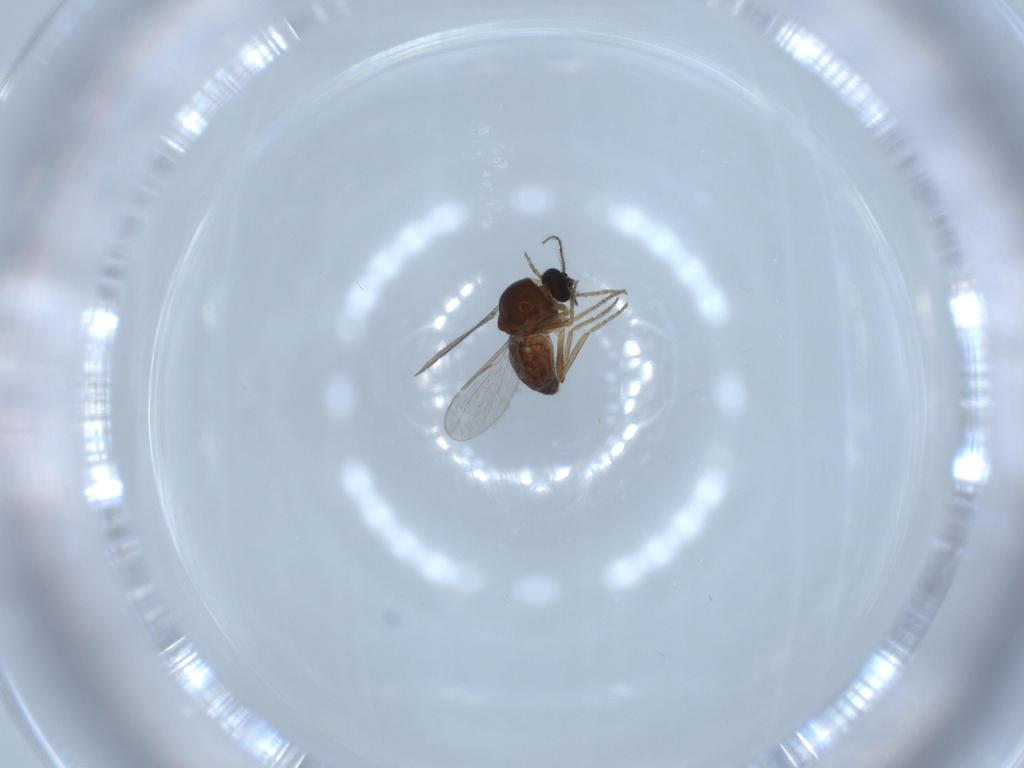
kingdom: Animalia
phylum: Arthropoda
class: Insecta
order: Diptera
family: Ceratopogonidae
